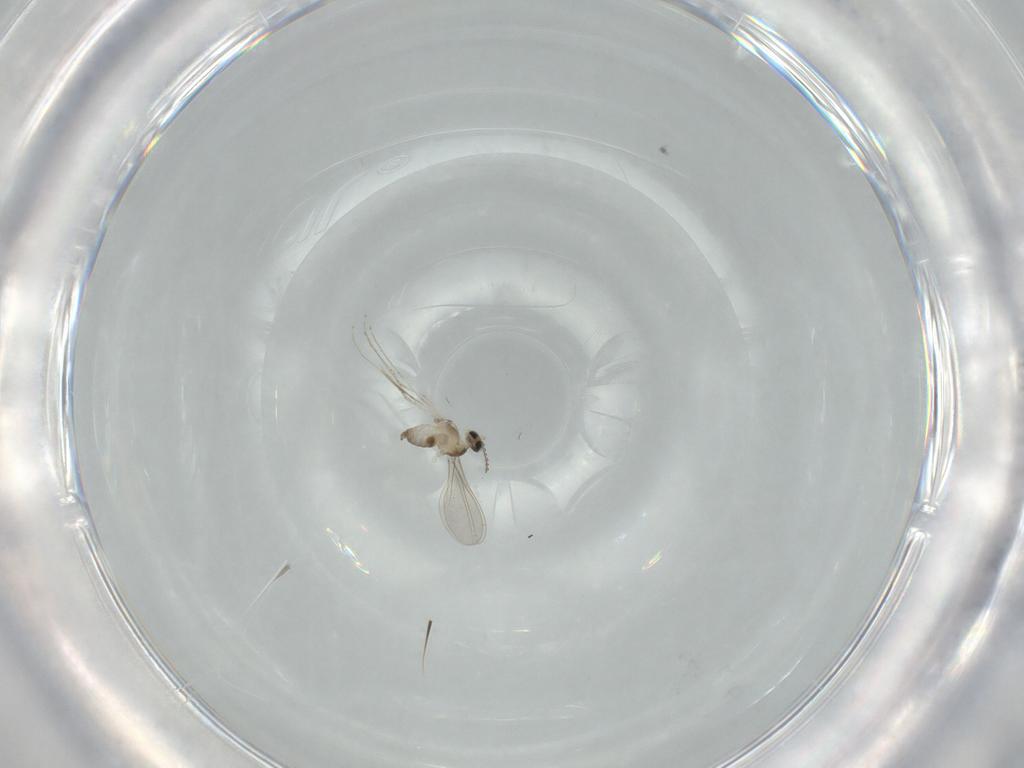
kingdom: Animalia
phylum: Arthropoda
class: Insecta
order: Diptera
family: Cecidomyiidae
